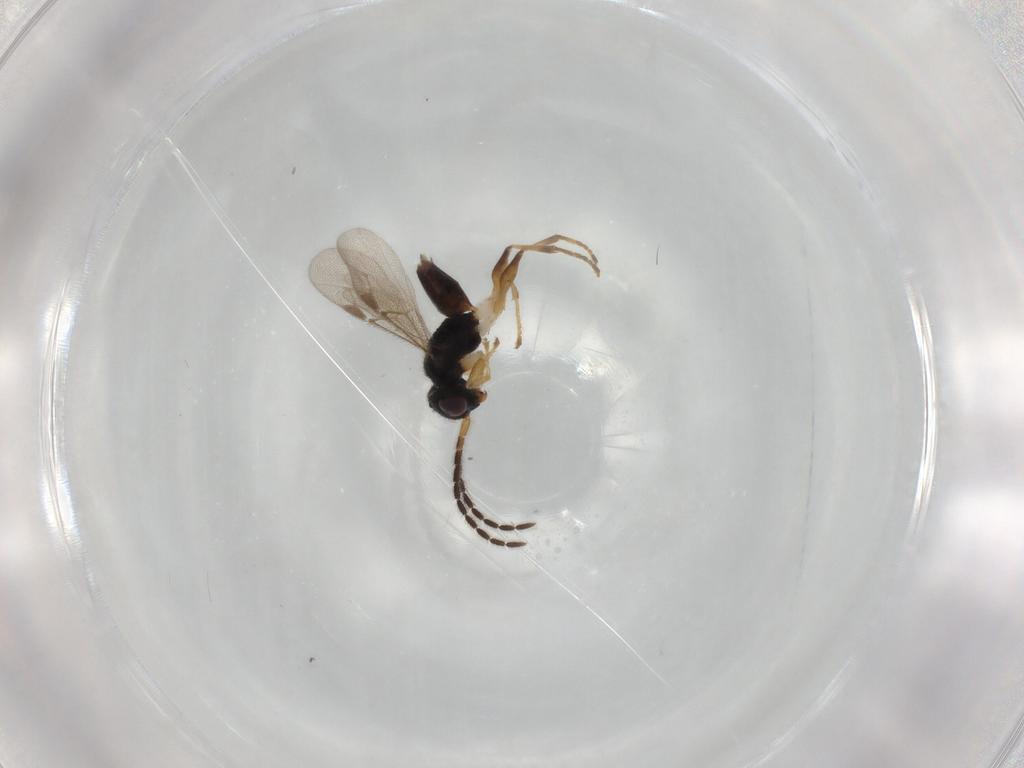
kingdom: Animalia
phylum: Arthropoda
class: Insecta
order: Hymenoptera
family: Dryinidae
